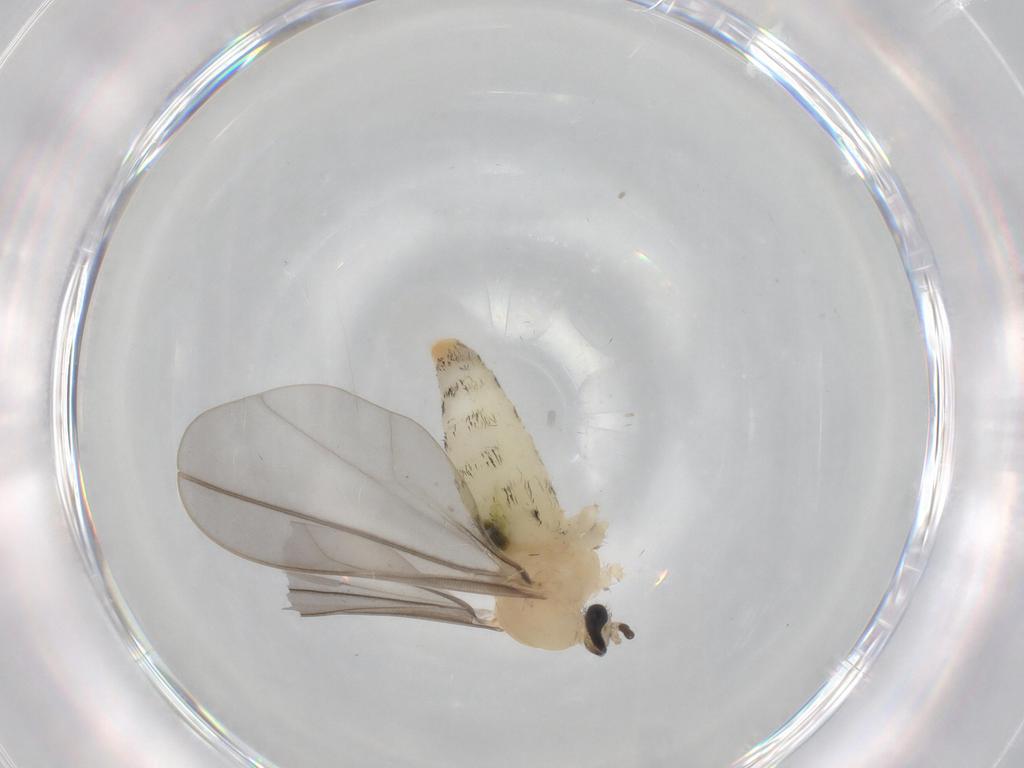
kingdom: Animalia
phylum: Arthropoda
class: Insecta
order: Diptera
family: Cecidomyiidae
